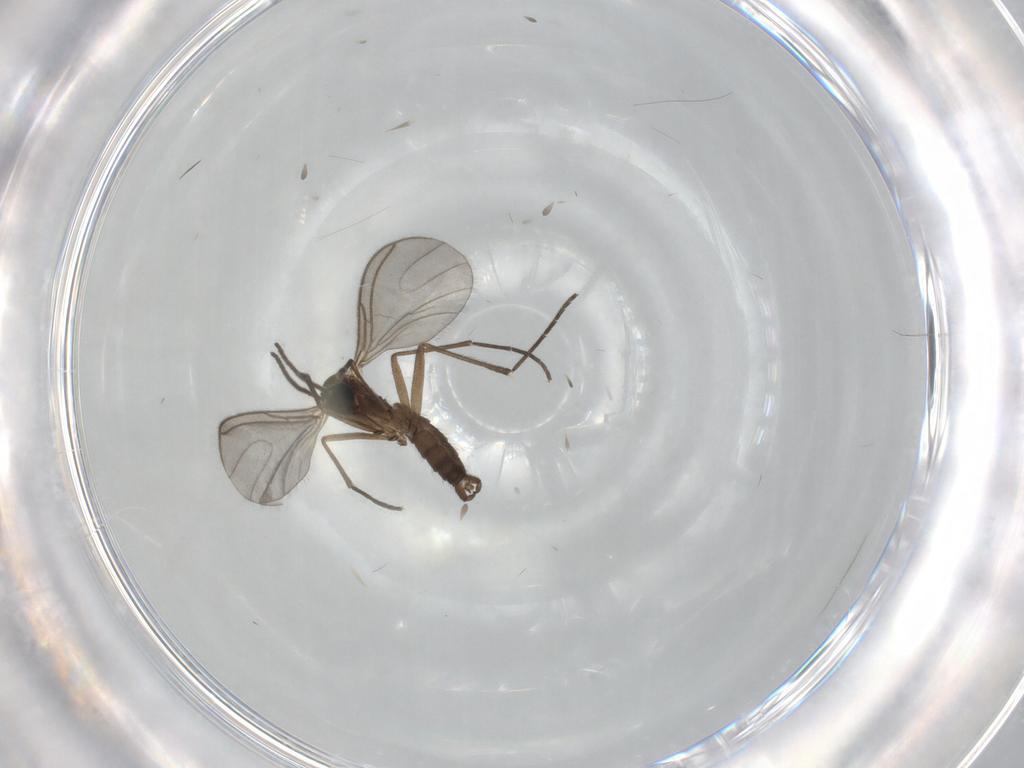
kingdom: Animalia
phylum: Arthropoda
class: Insecta
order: Diptera
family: Sciaridae
